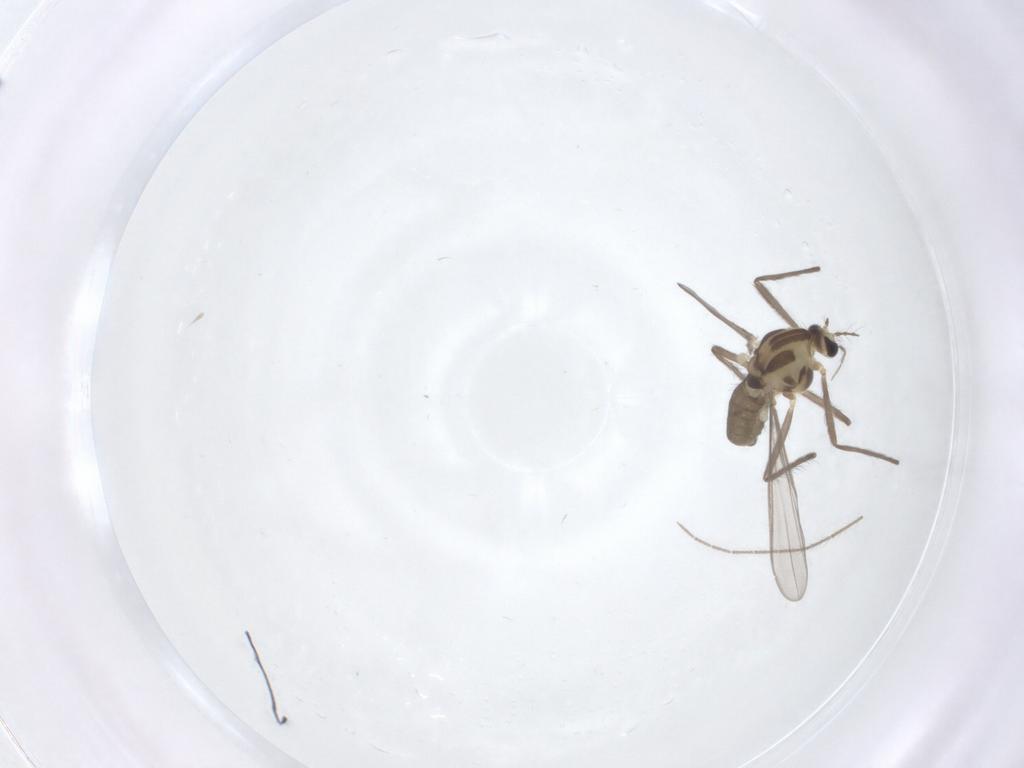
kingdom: Animalia
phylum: Arthropoda
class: Insecta
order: Diptera
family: Chironomidae
